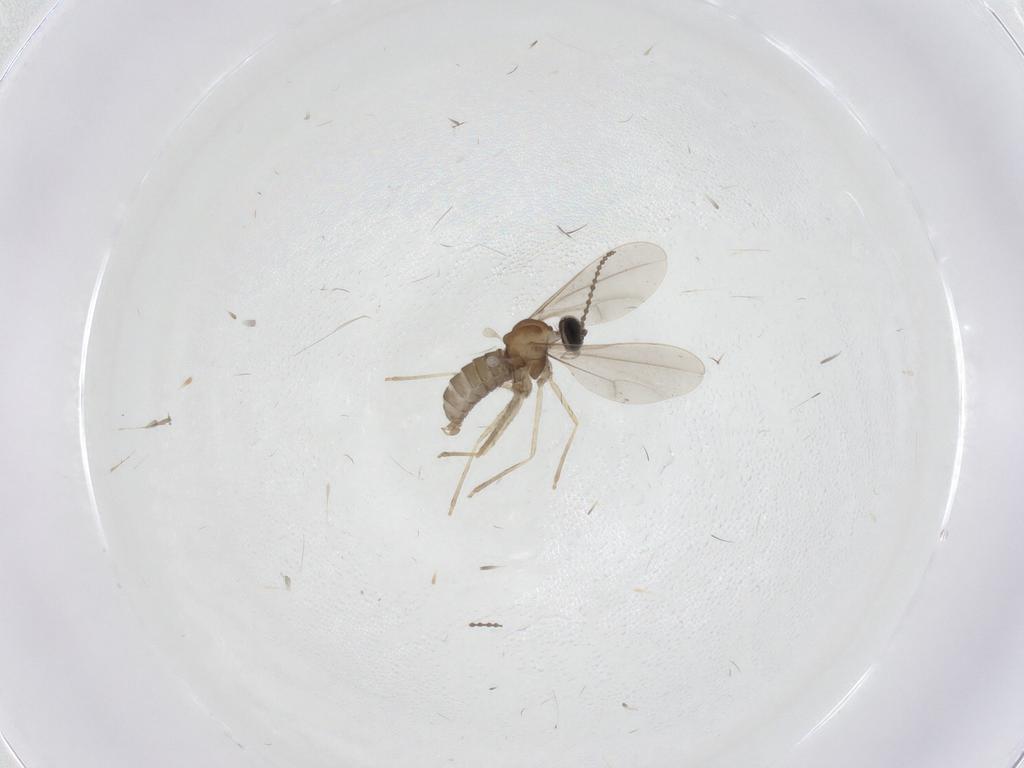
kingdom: Animalia
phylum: Arthropoda
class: Insecta
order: Diptera
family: Cecidomyiidae
